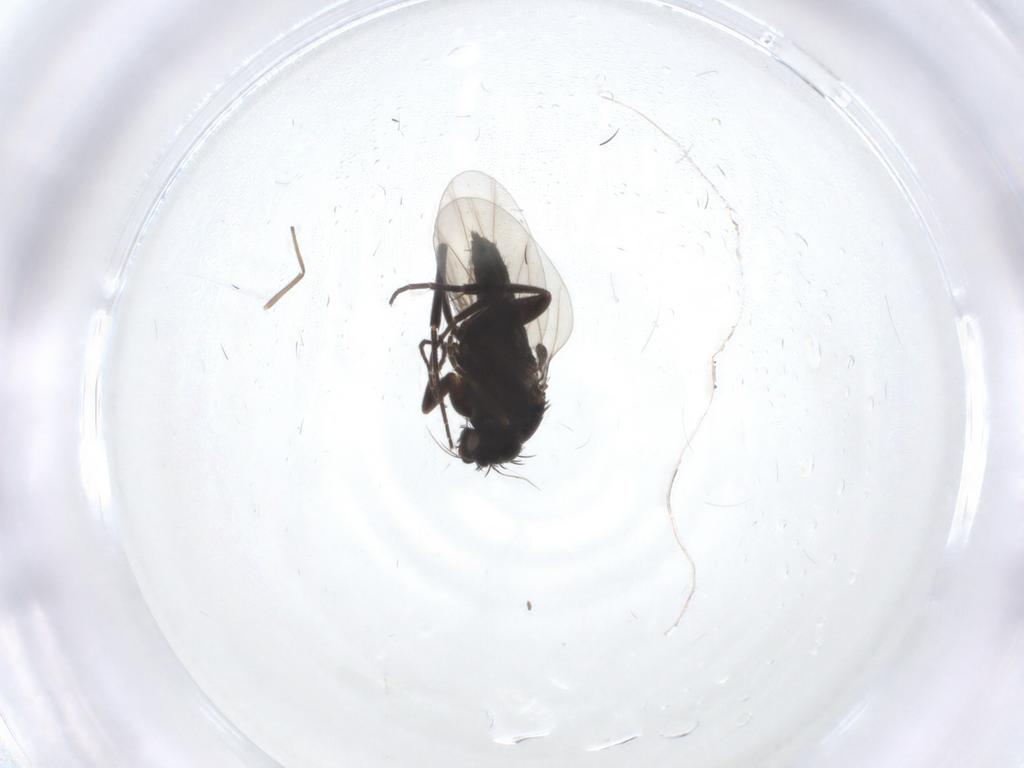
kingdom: Animalia
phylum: Arthropoda
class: Insecta
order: Diptera
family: Phoridae
